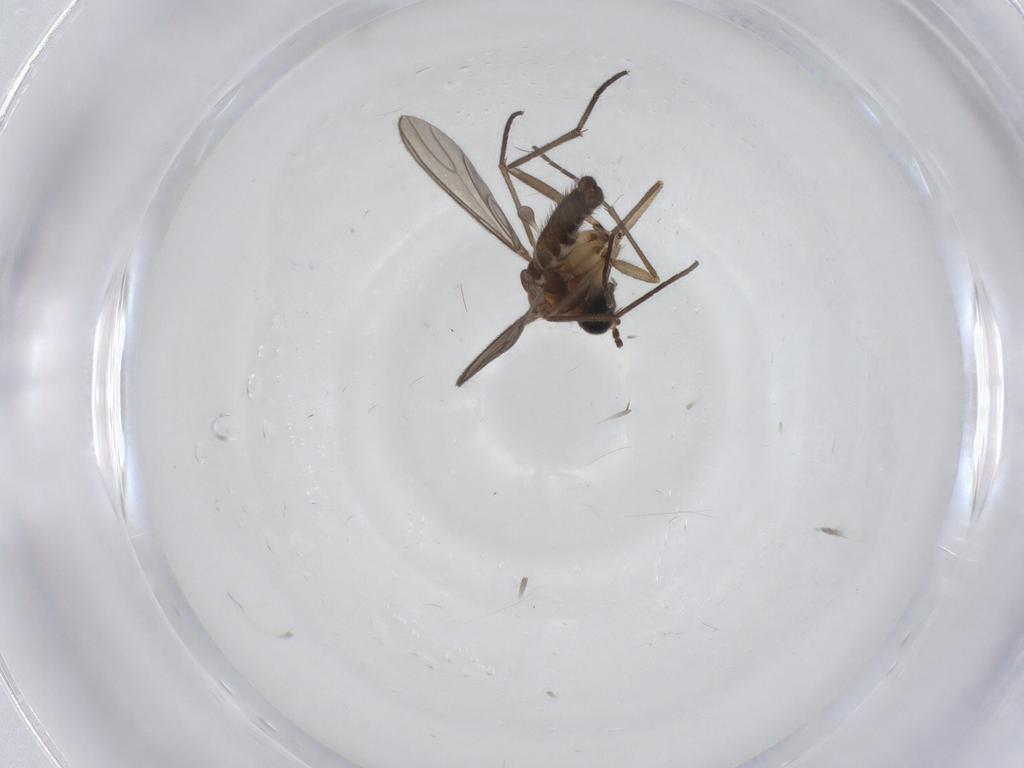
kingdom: Animalia
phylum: Arthropoda
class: Insecta
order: Diptera
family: Sciaridae
